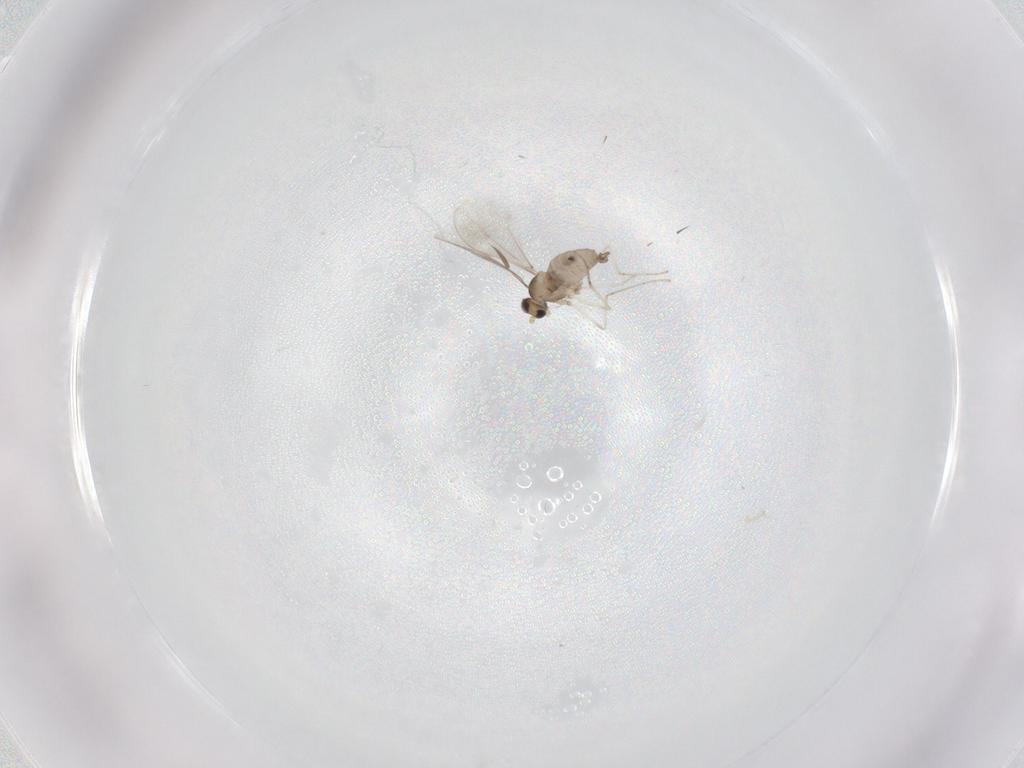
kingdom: Animalia
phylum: Arthropoda
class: Insecta
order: Diptera
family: Cecidomyiidae
